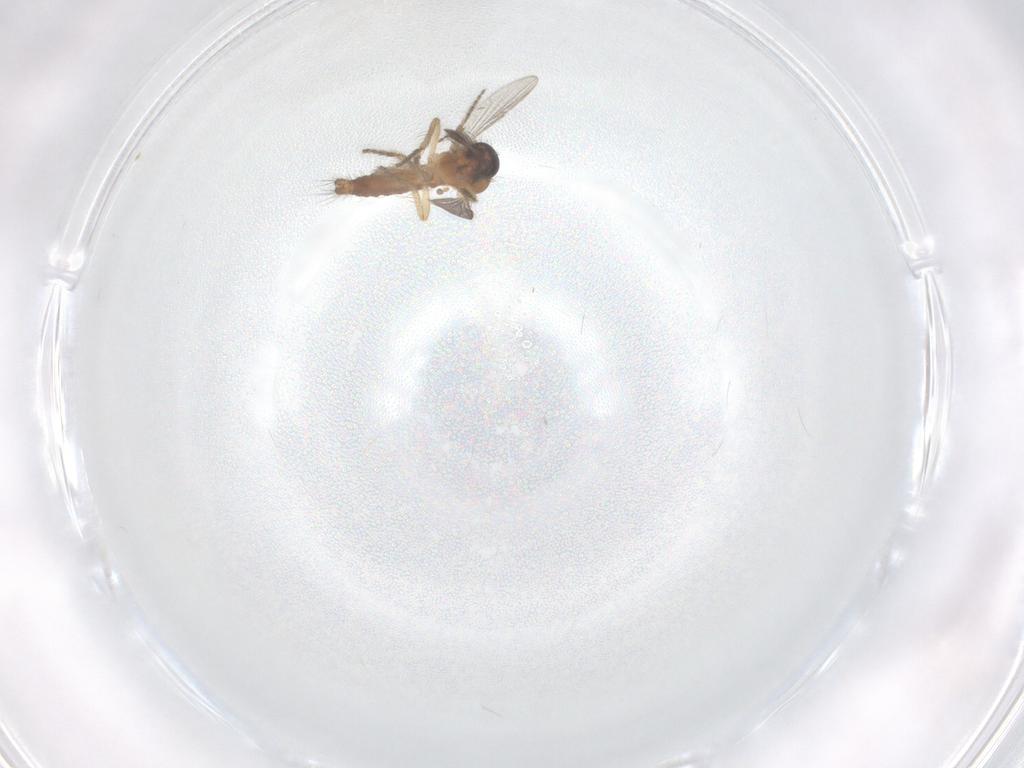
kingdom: Animalia
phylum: Arthropoda
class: Insecta
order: Diptera
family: Ceratopogonidae
